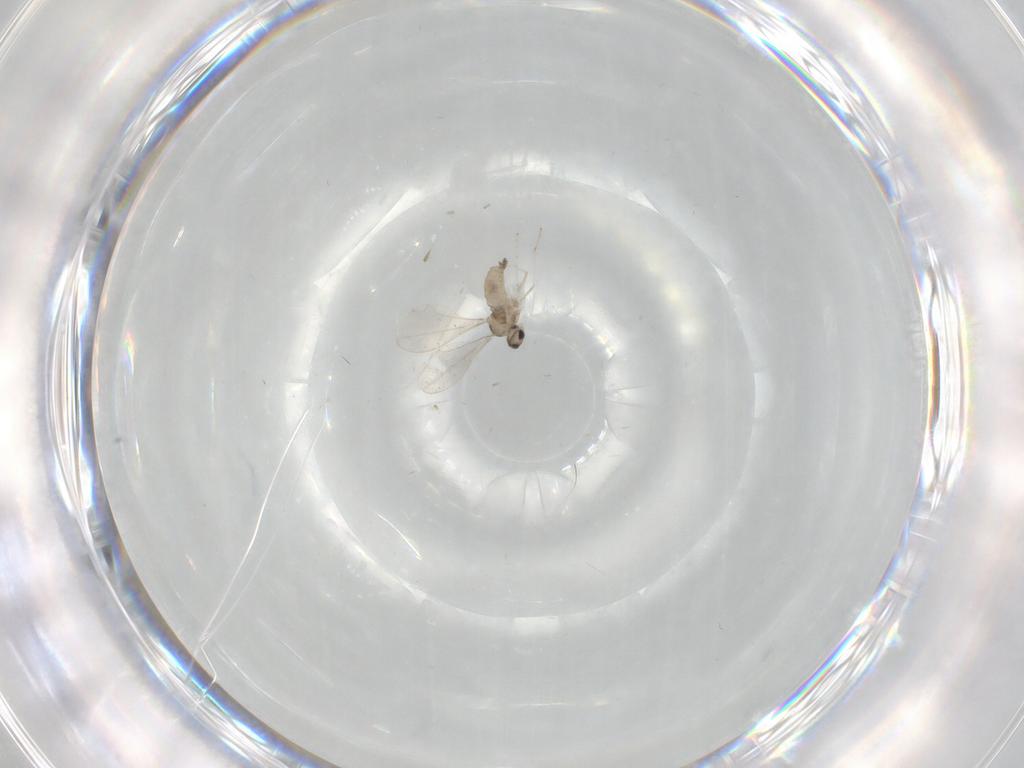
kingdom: Animalia
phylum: Arthropoda
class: Insecta
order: Diptera
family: Cecidomyiidae
